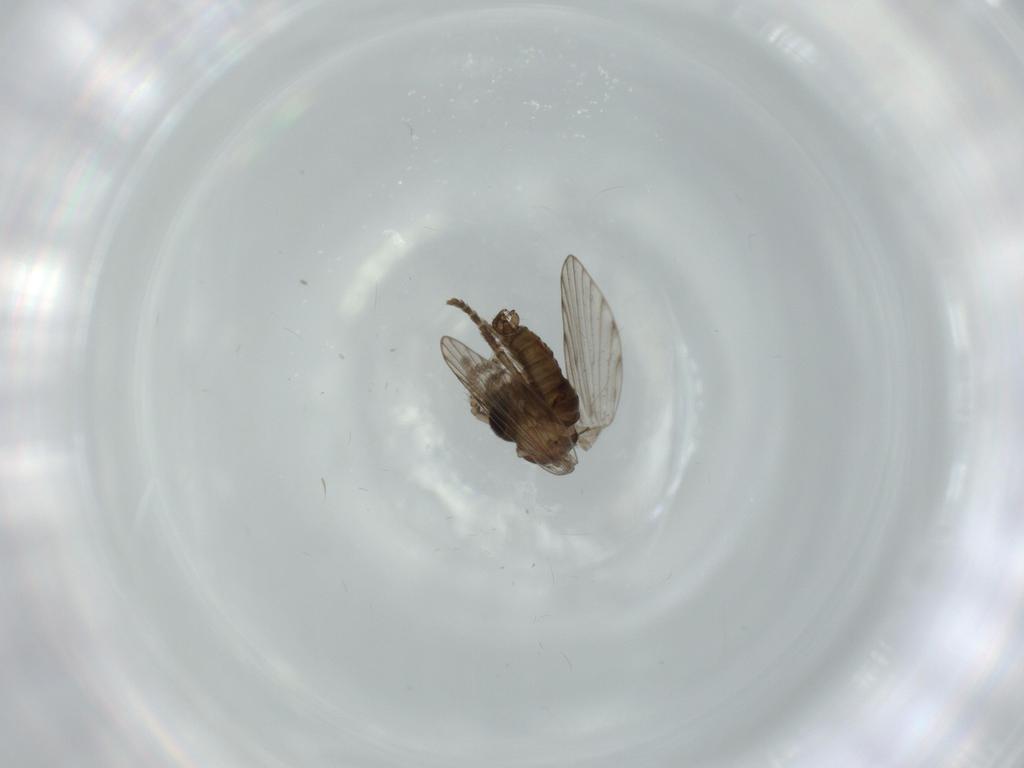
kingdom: Animalia
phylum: Arthropoda
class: Insecta
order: Diptera
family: Psychodidae
